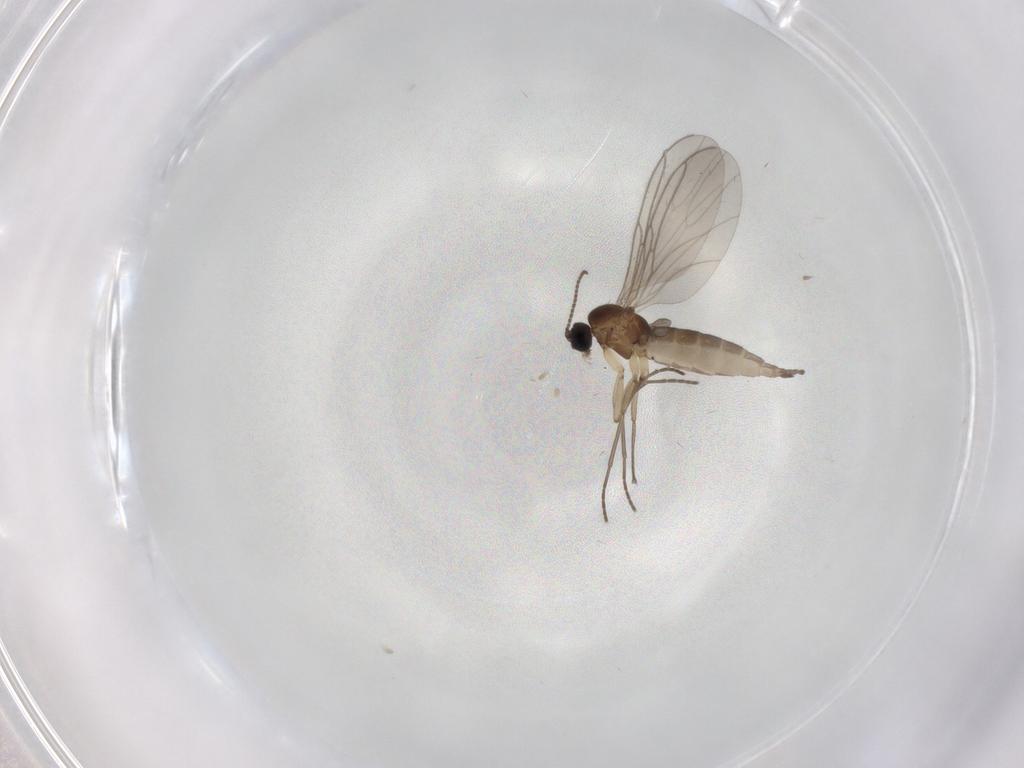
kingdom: Animalia
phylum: Arthropoda
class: Insecta
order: Diptera
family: Sciaridae
